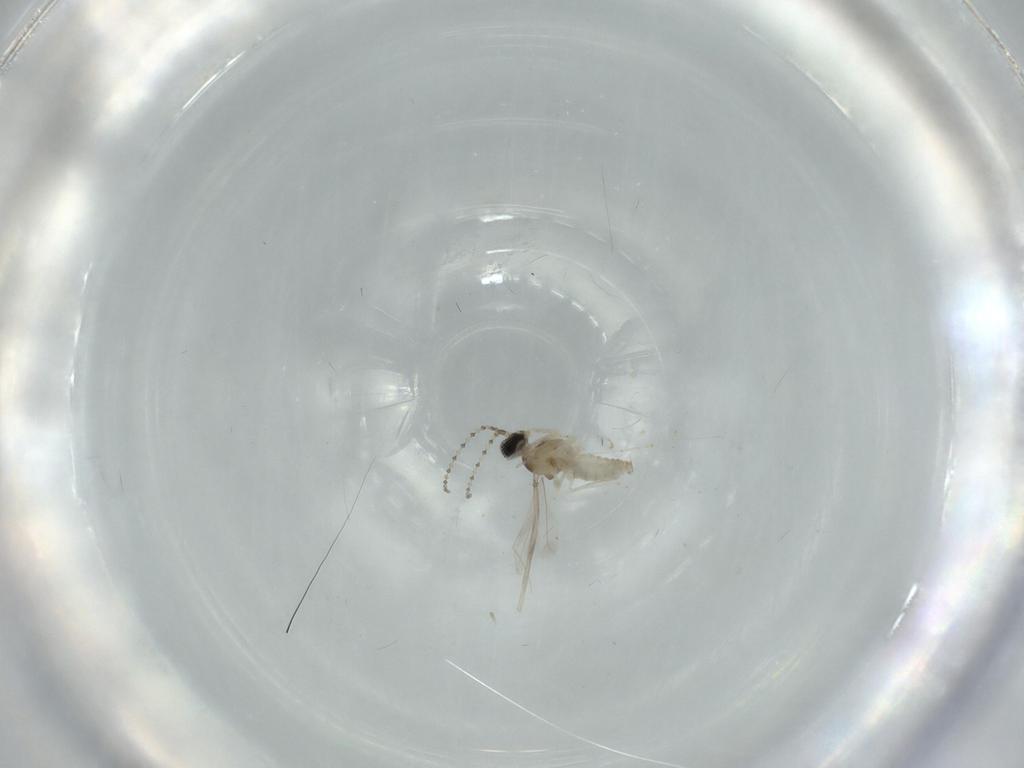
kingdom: Animalia
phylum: Arthropoda
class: Insecta
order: Diptera
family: Cecidomyiidae
